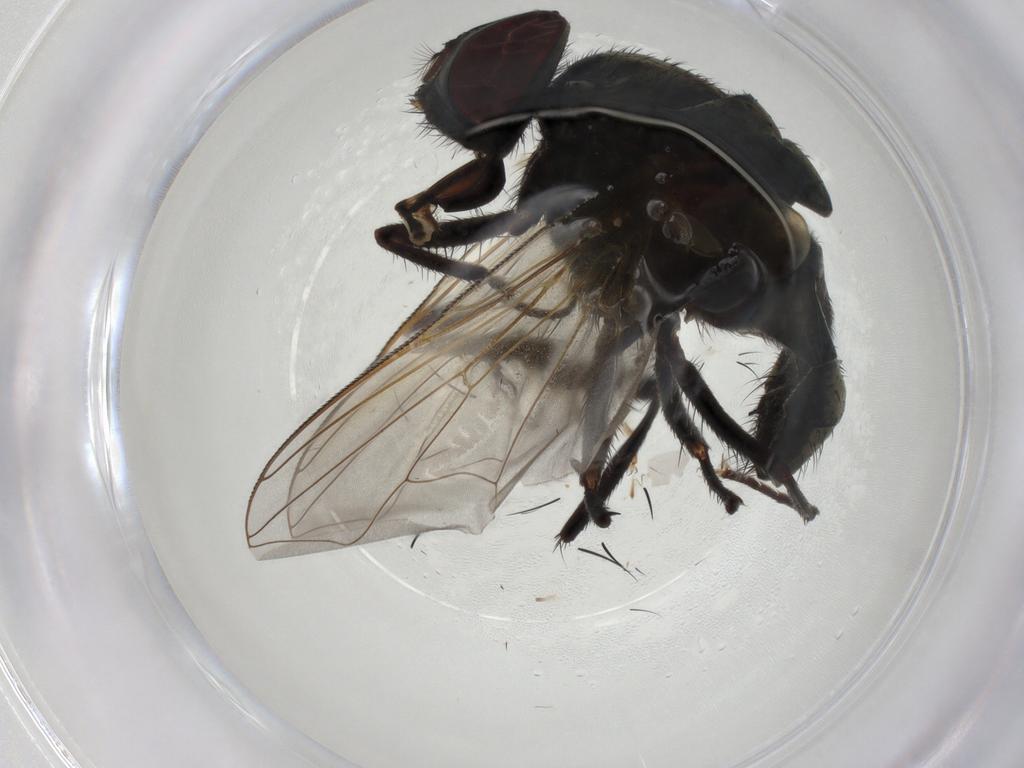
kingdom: Animalia
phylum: Arthropoda
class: Insecta
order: Diptera
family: Muscidae
